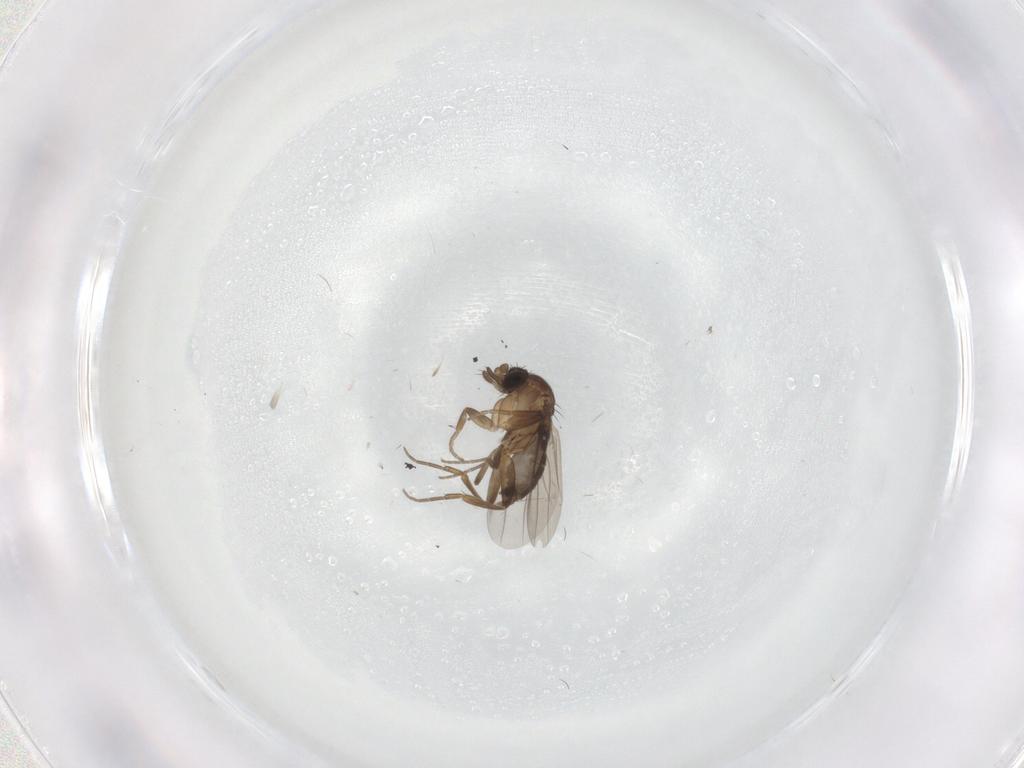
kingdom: Animalia
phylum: Arthropoda
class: Insecta
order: Diptera
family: Phoridae
